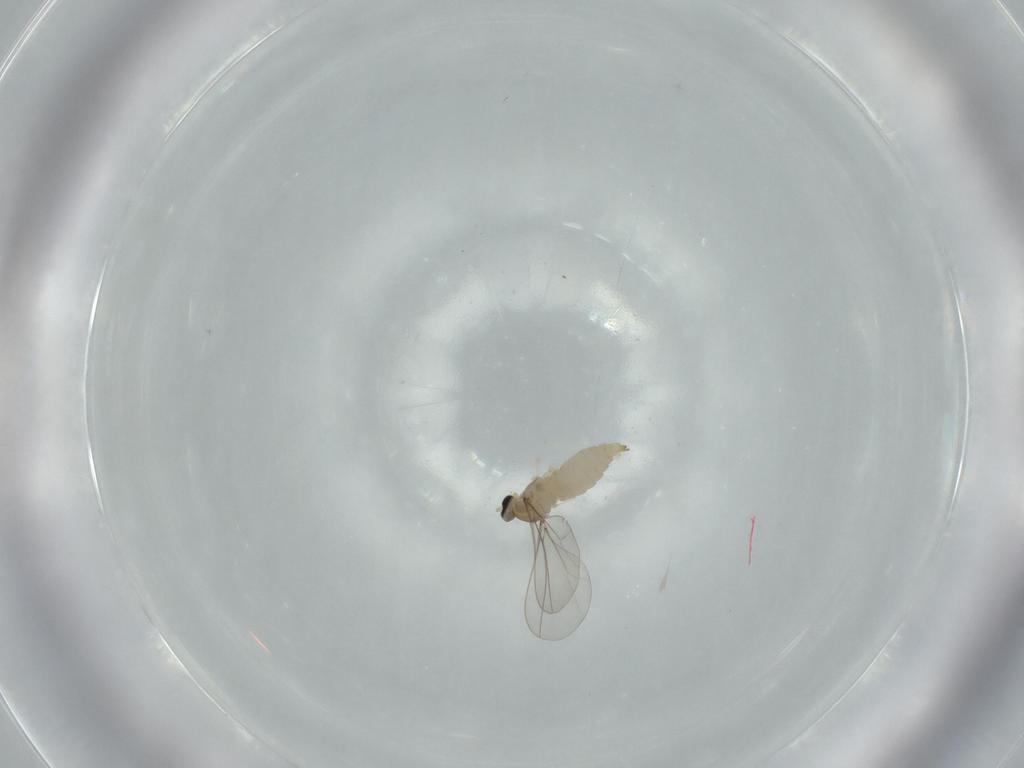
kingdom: Animalia
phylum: Arthropoda
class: Insecta
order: Diptera
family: Cecidomyiidae
